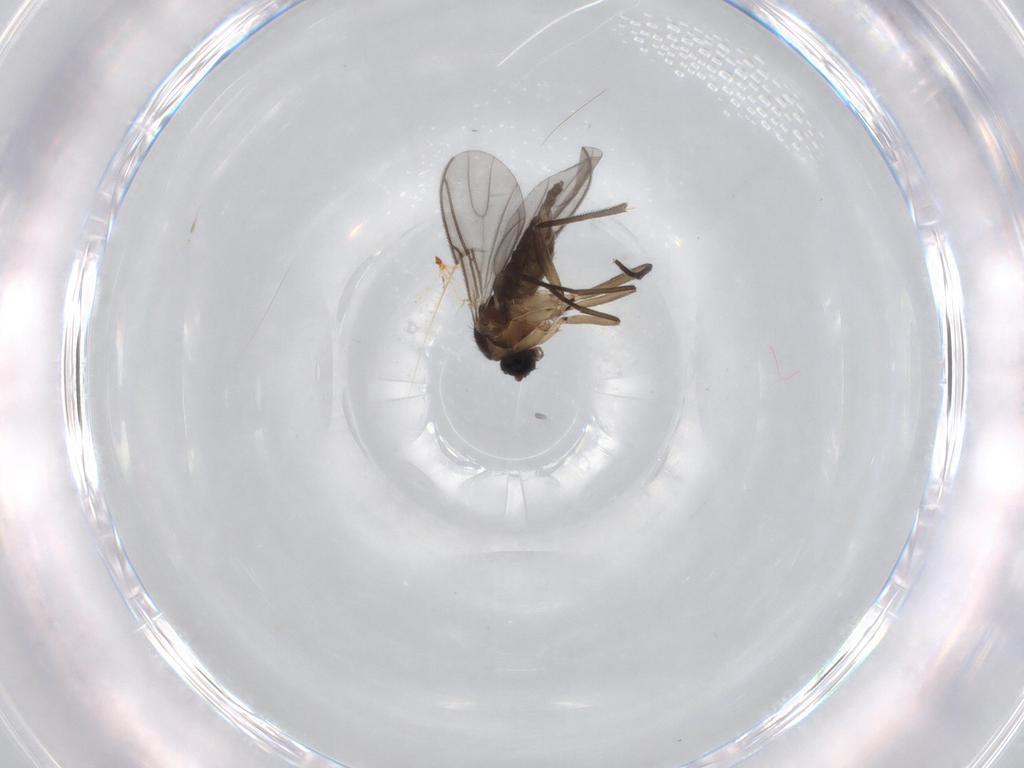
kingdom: Animalia
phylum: Arthropoda
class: Insecta
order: Diptera
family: Sciaridae
